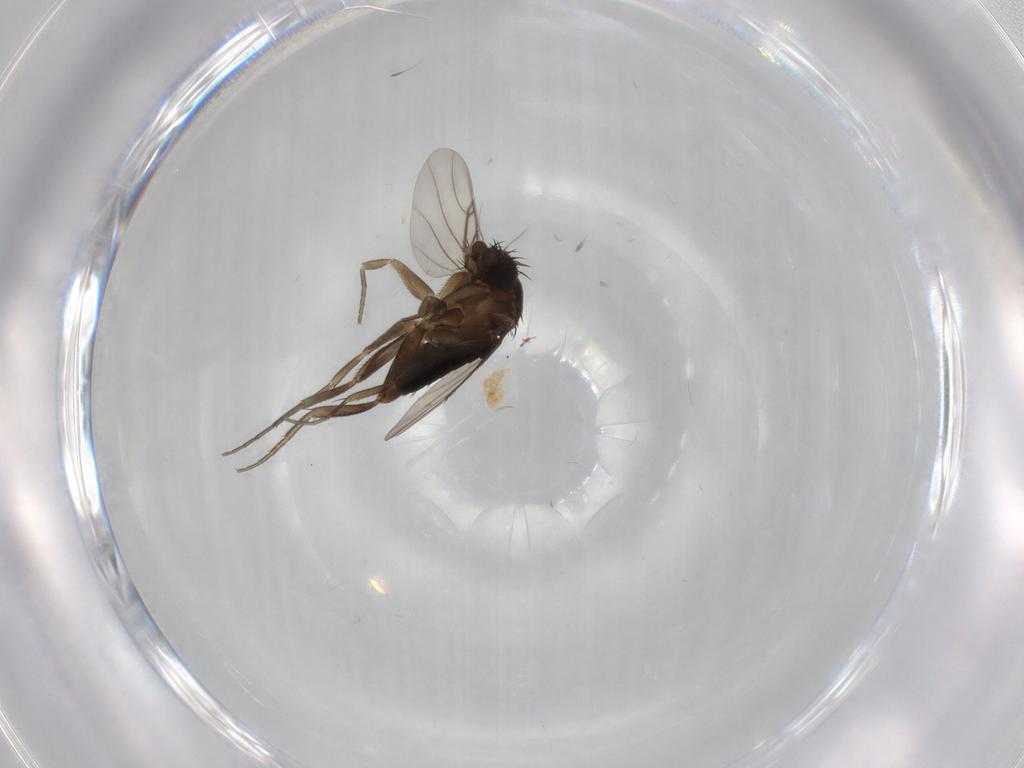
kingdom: Animalia
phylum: Arthropoda
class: Insecta
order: Diptera
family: Phoridae
